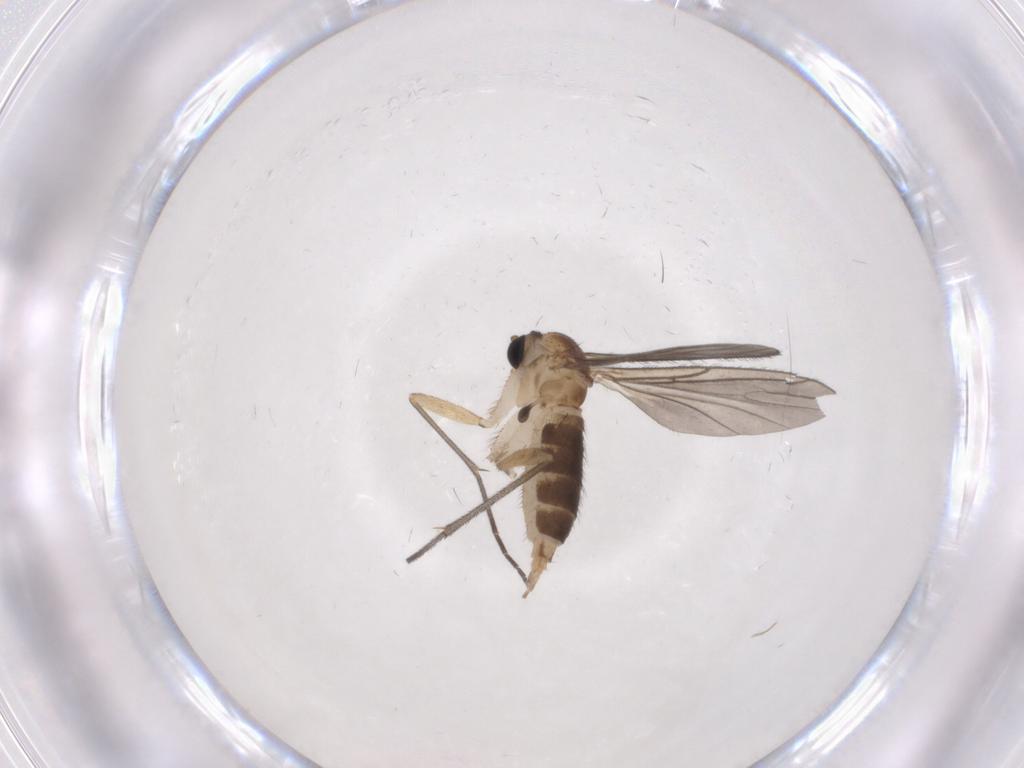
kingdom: Animalia
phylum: Arthropoda
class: Insecta
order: Diptera
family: Sciaridae
